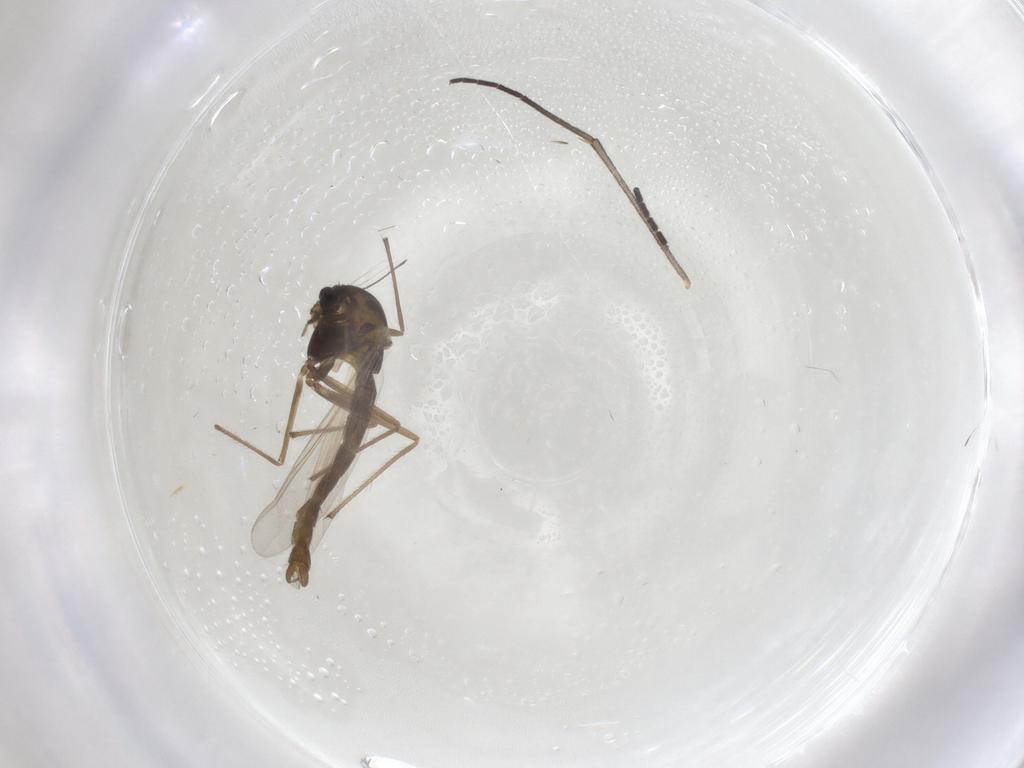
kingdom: Animalia
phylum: Arthropoda
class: Insecta
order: Diptera
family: Chironomidae
